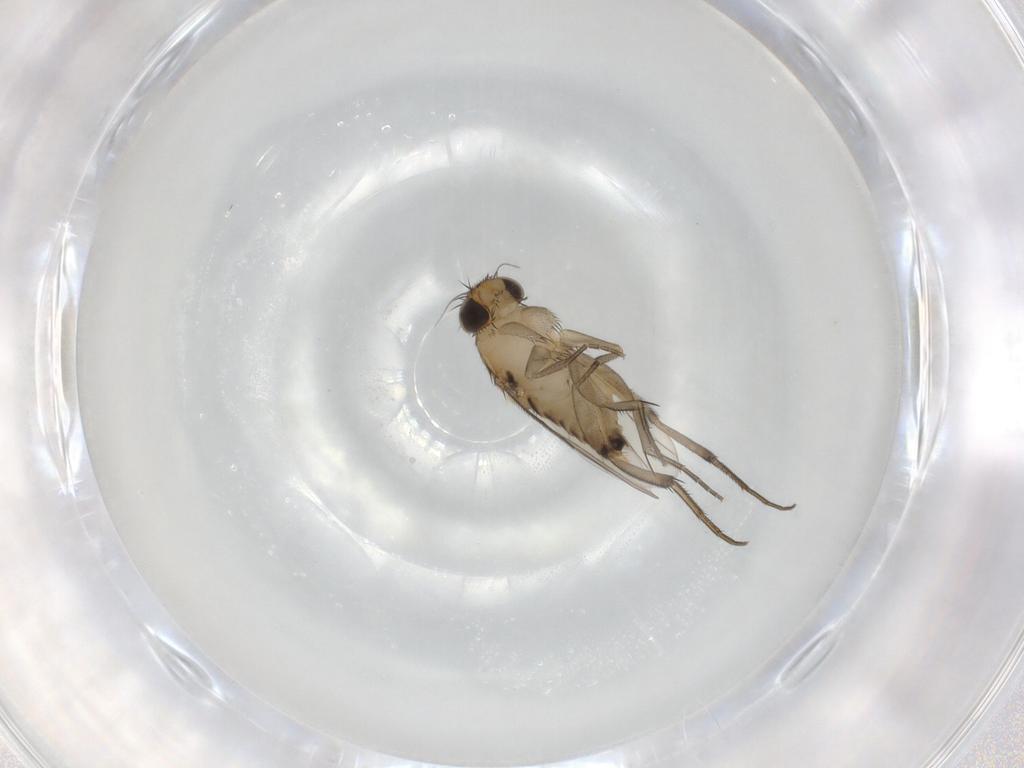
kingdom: Animalia
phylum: Arthropoda
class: Insecta
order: Diptera
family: Phoridae
